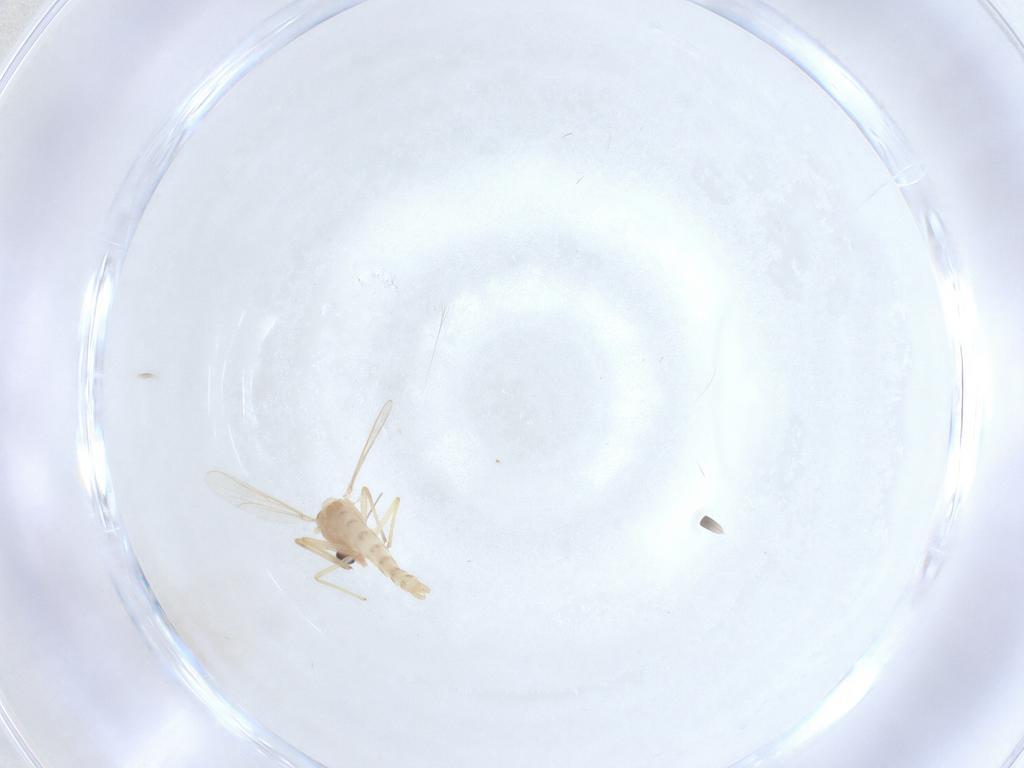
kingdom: Animalia
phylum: Arthropoda
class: Insecta
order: Diptera
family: Chironomidae
